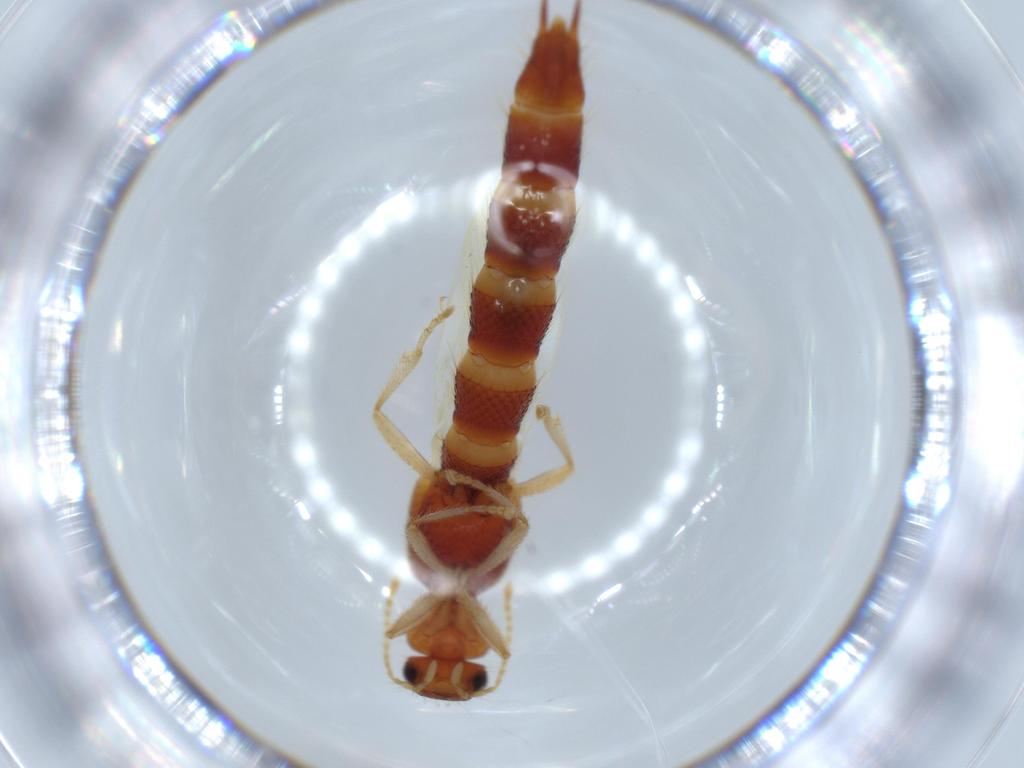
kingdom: Animalia
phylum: Arthropoda
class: Insecta
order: Coleoptera
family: Staphylinidae
